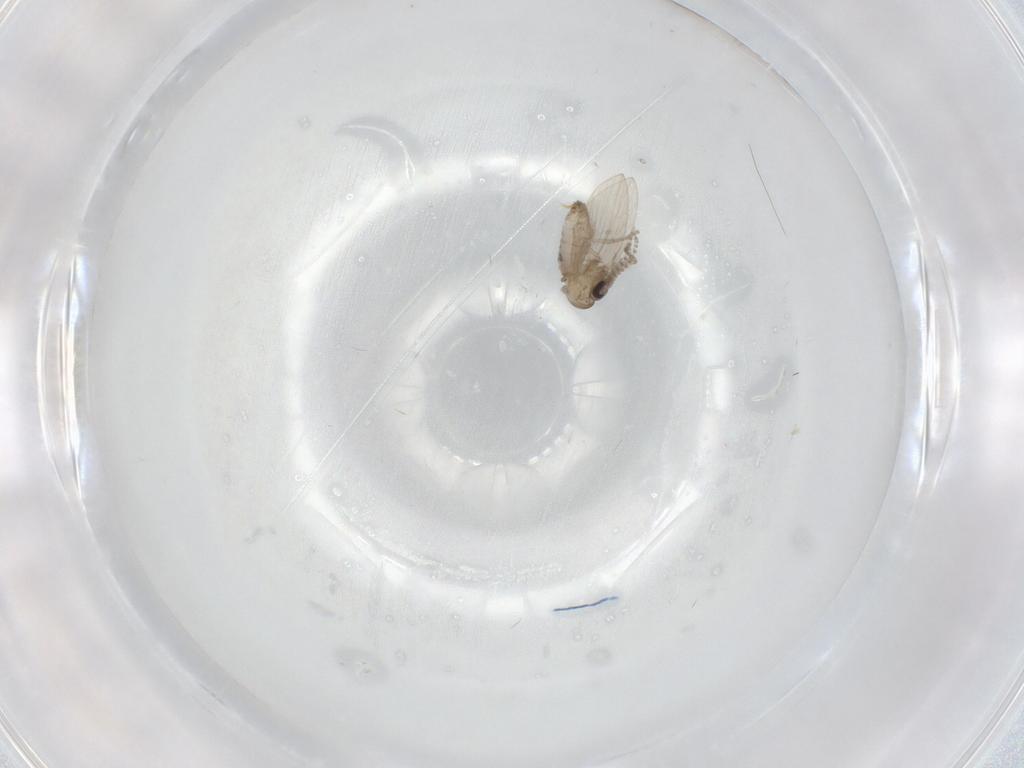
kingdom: Animalia
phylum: Arthropoda
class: Insecta
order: Diptera
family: Psychodidae
